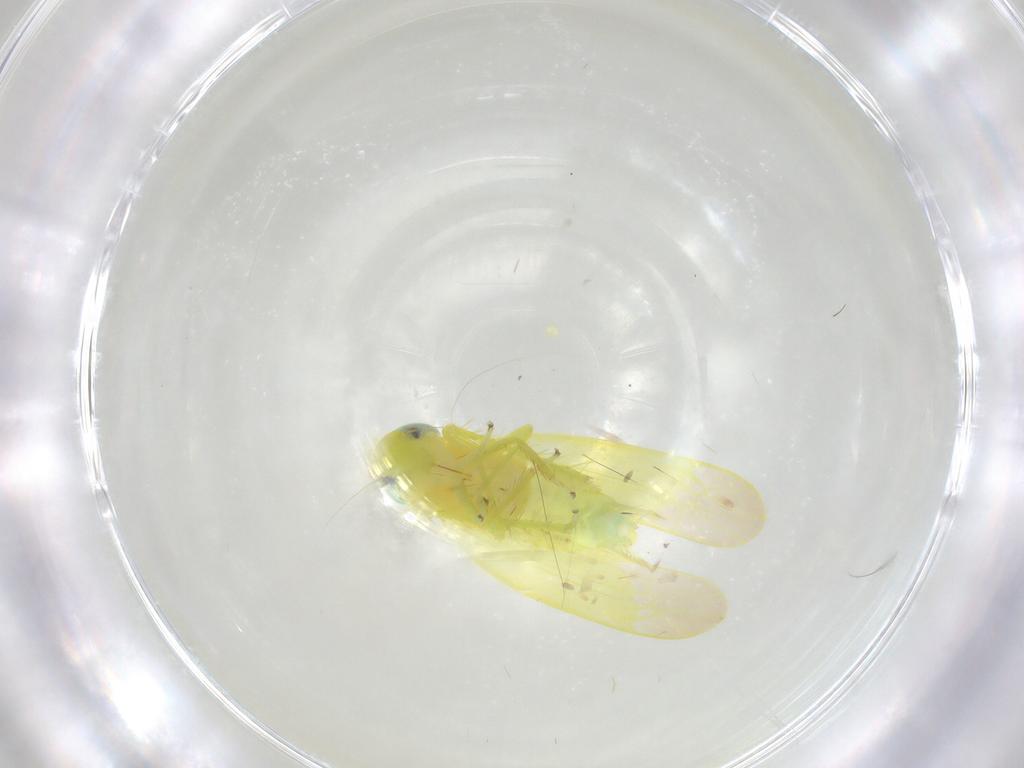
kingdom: Animalia
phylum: Arthropoda
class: Insecta
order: Hemiptera
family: Cicadellidae
